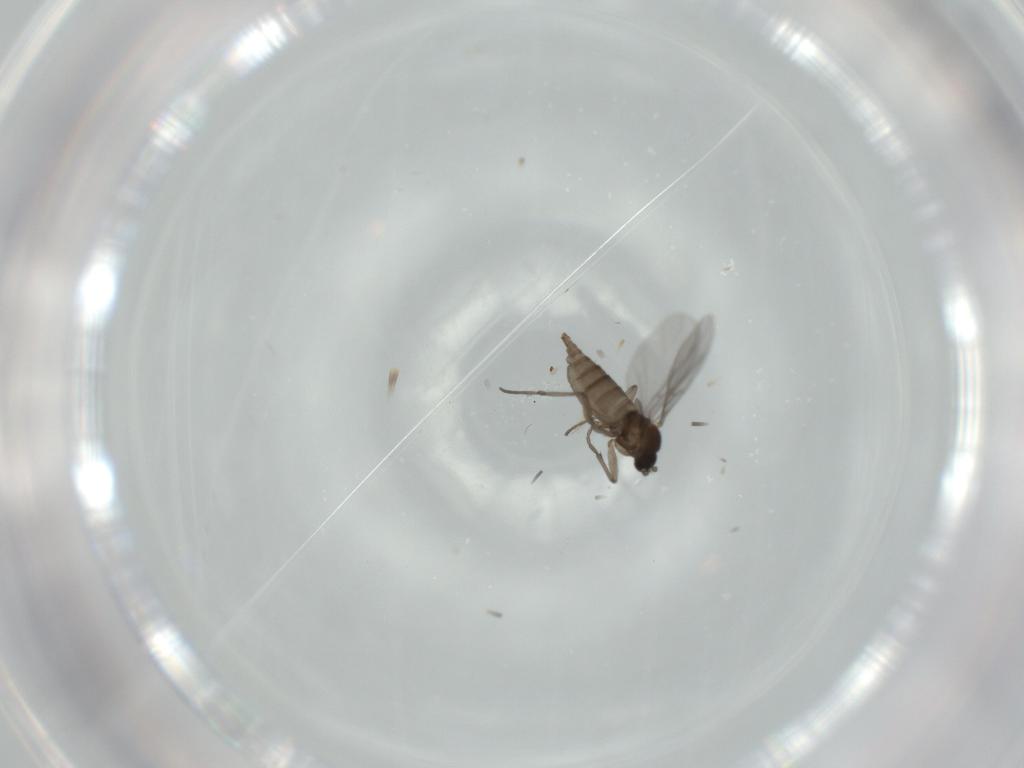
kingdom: Animalia
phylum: Arthropoda
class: Insecta
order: Diptera
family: Sciaridae
